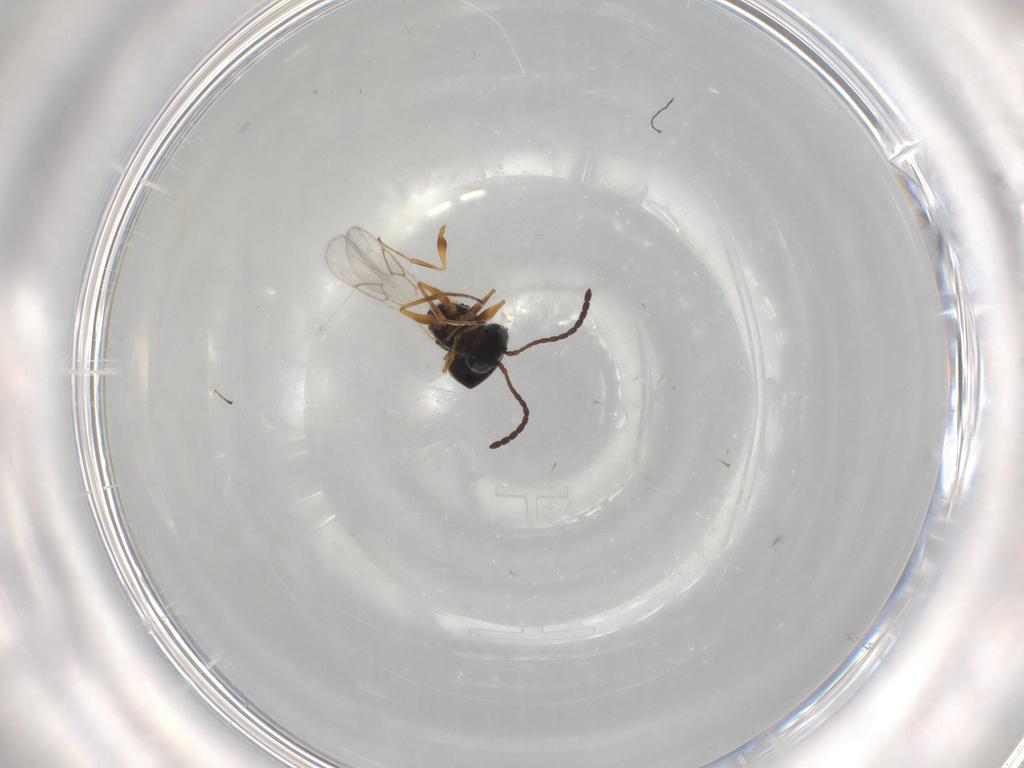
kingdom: Animalia
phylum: Arthropoda
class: Insecta
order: Hymenoptera
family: Figitidae
